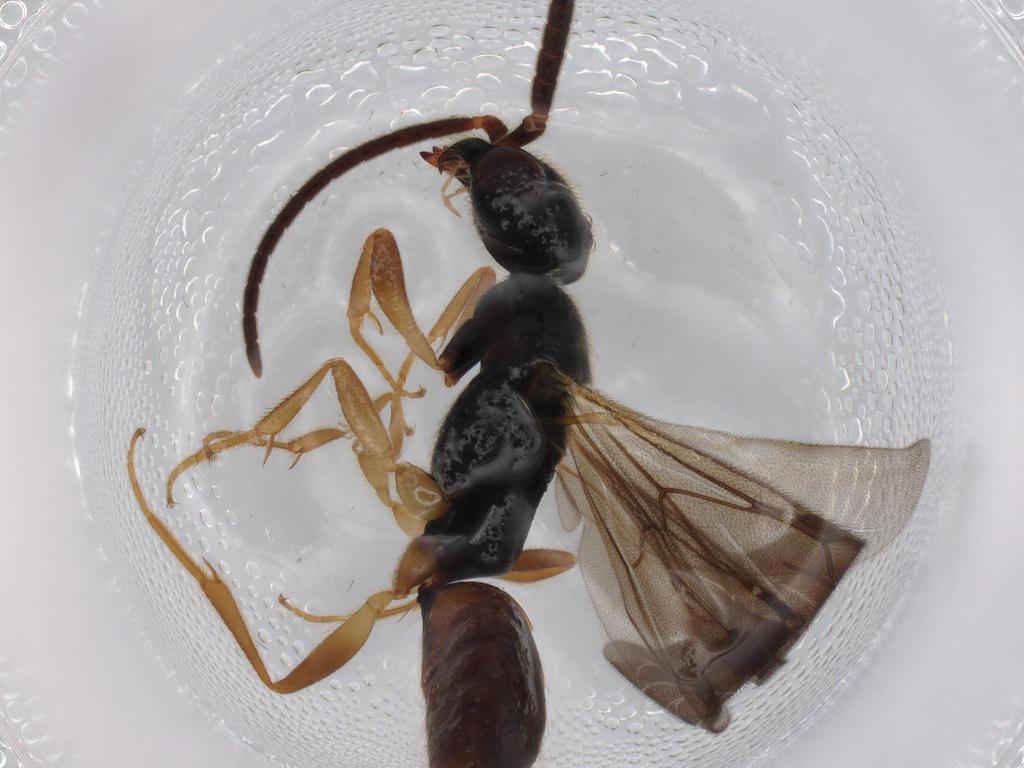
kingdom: Animalia
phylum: Arthropoda
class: Insecta
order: Hymenoptera
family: Bethylidae
